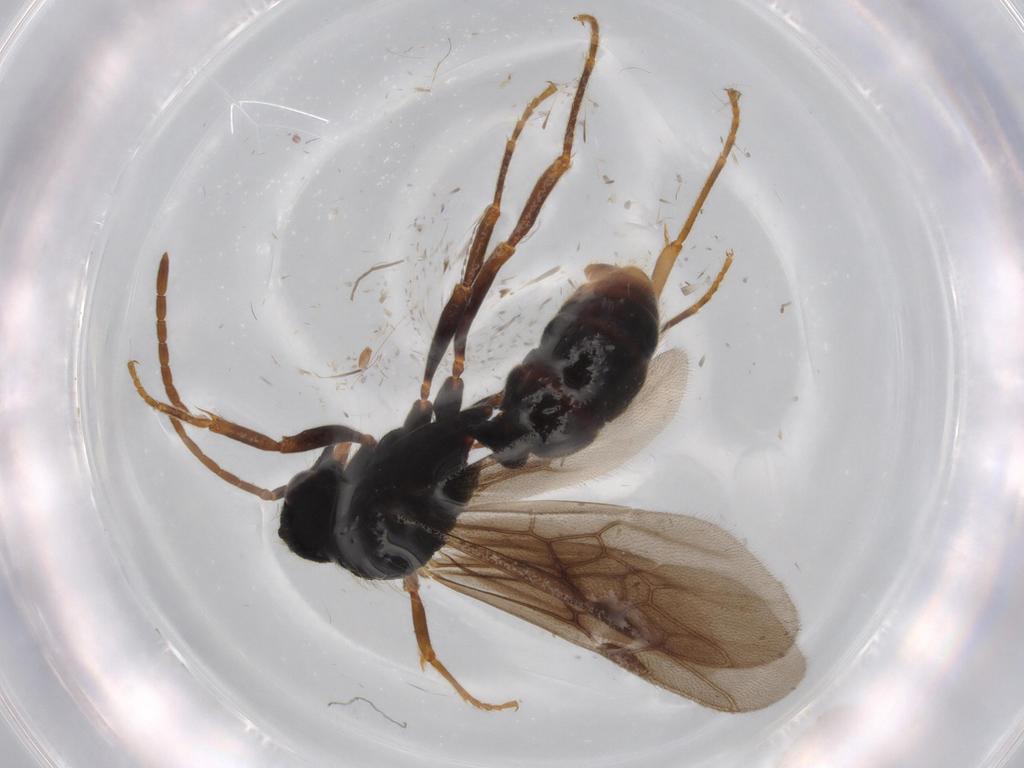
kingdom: Animalia
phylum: Arthropoda
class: Insecta
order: Hymenoptera
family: Formicidae
